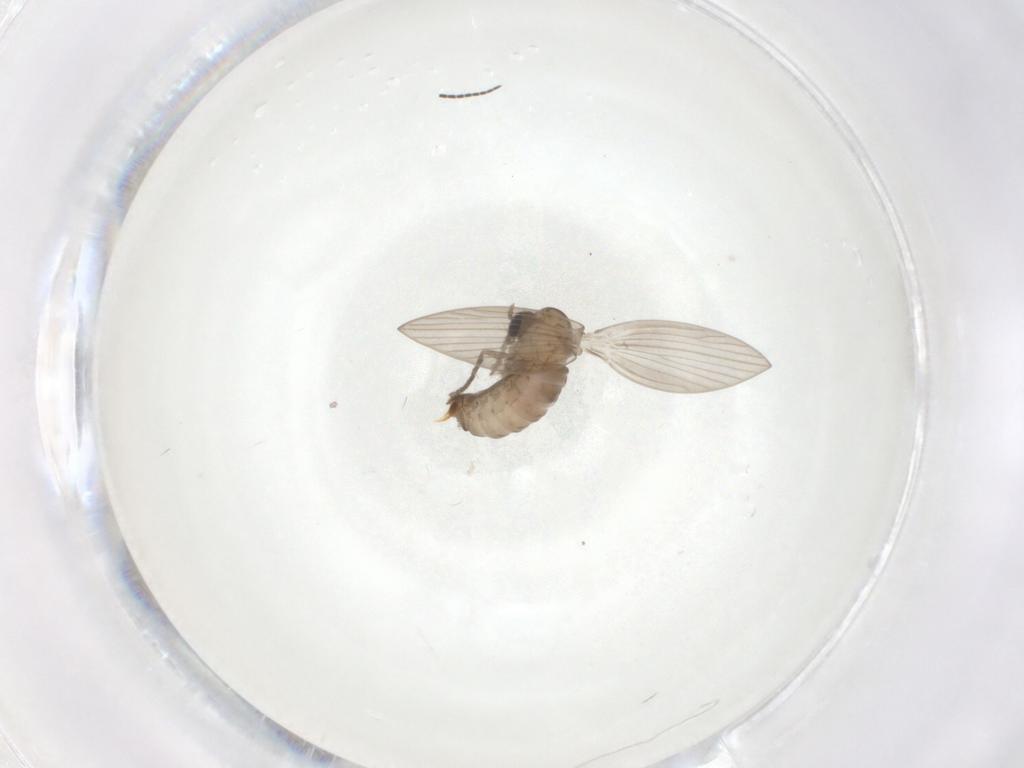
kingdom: Animalia
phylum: Arthropoda
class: Insecta
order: Diptera
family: Psychodidae
